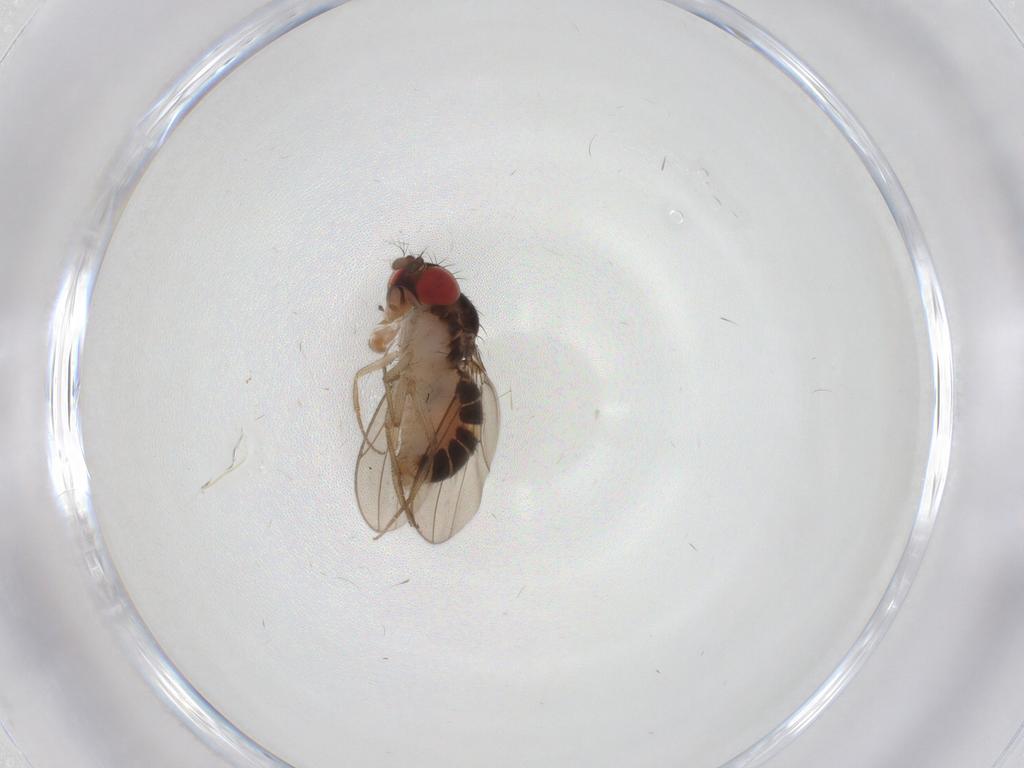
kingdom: Animalia
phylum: Arthropoda
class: Insecta
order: Diptera
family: Drosophilidae
